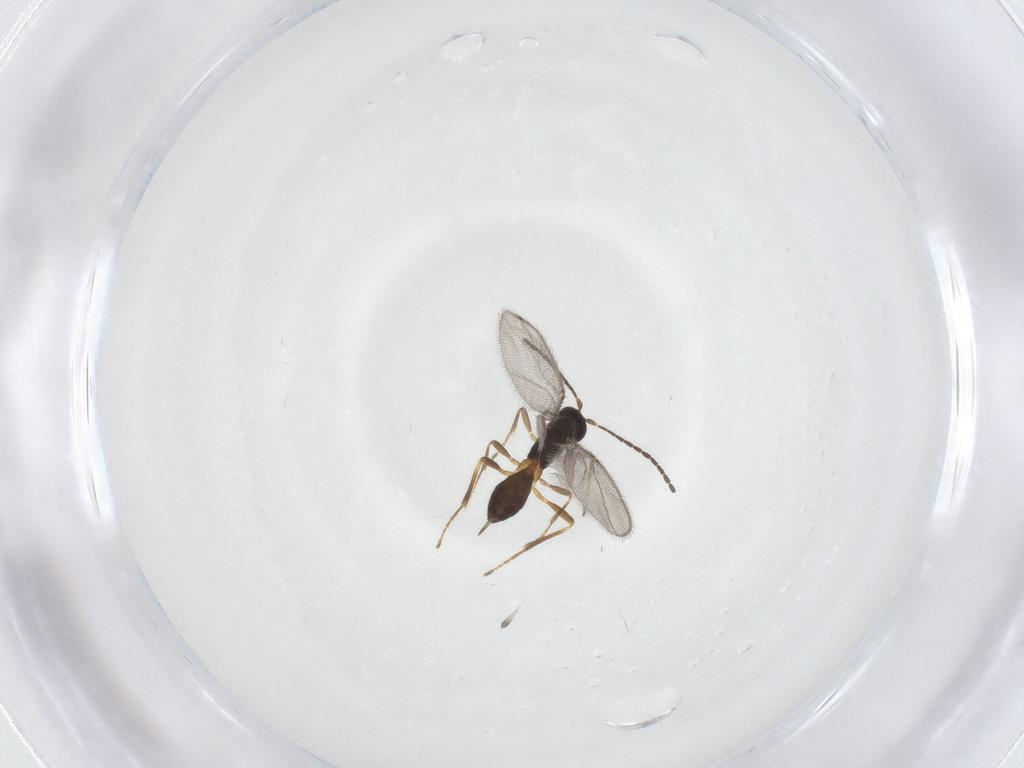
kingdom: Animalia
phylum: Arthropoda
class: Insecta
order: Hymenoptera
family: Braconidae
